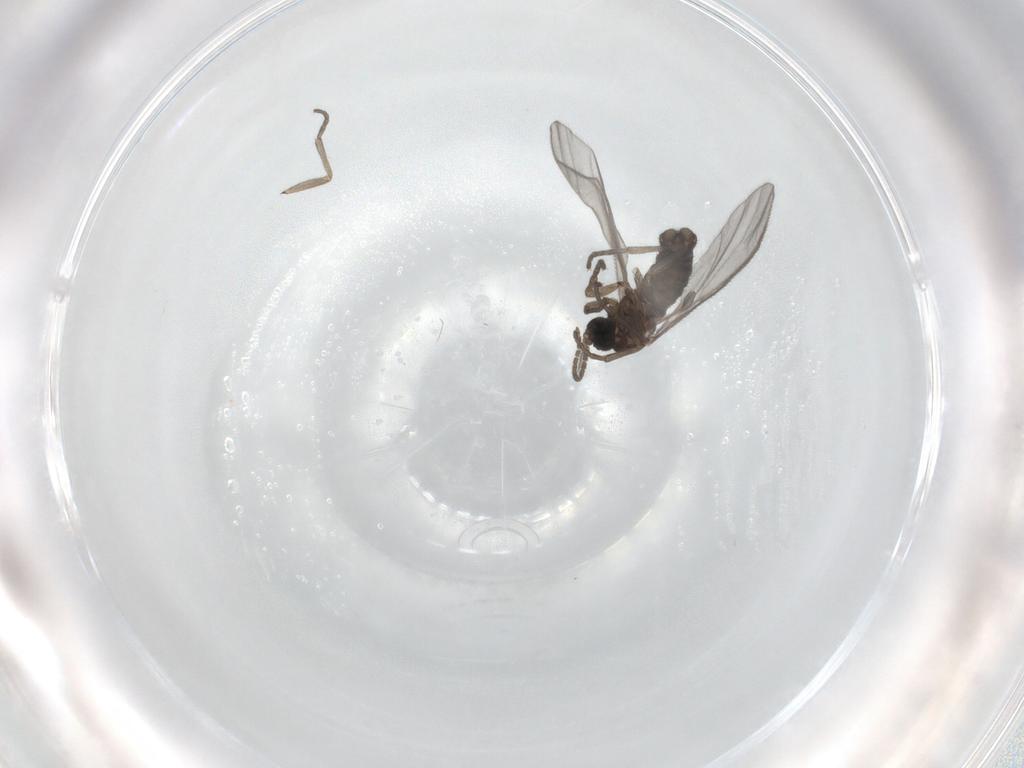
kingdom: Animalia
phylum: Arthropoda
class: Insecta
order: Diptera
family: Sciaridae
